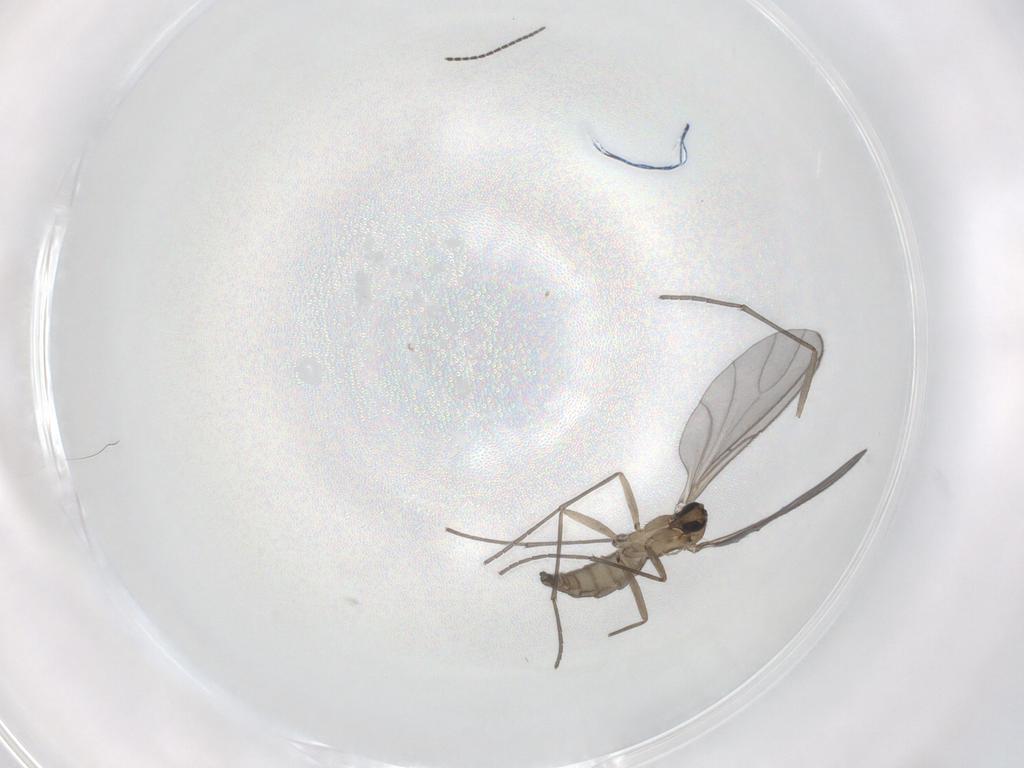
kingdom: Animalia
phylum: Arthropoda
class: Insecta
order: Diptera
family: Sciaridae
